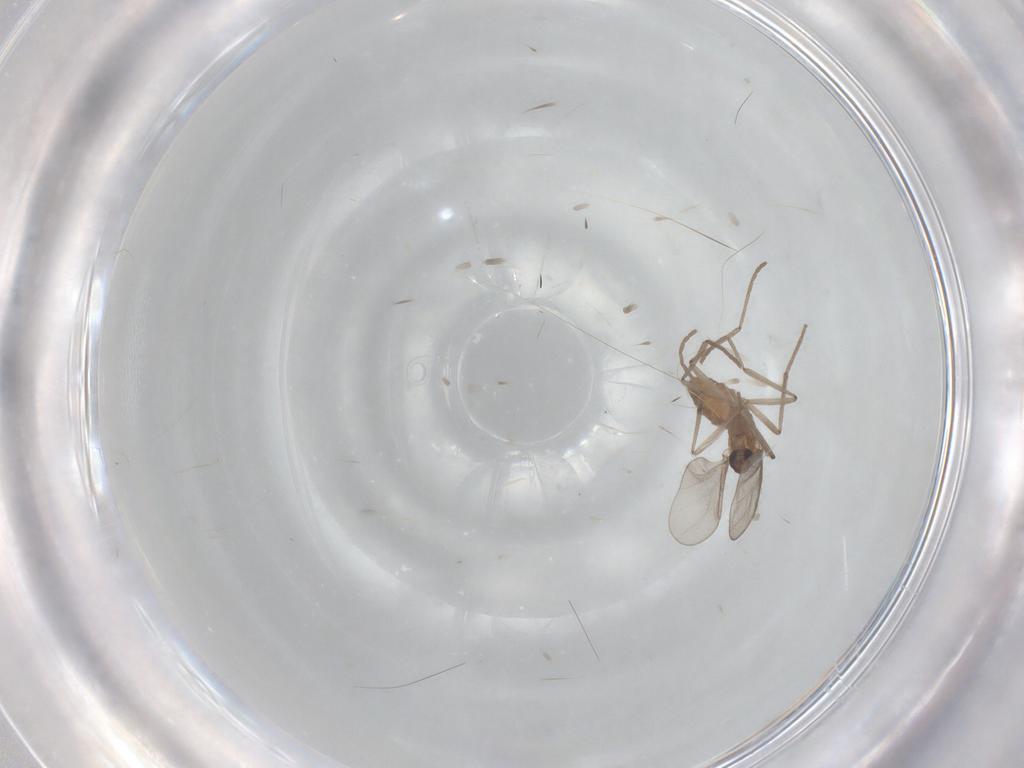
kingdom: Animalia
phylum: Arthropoda
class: Insecta
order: Diptera
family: Cecidomyiidae
